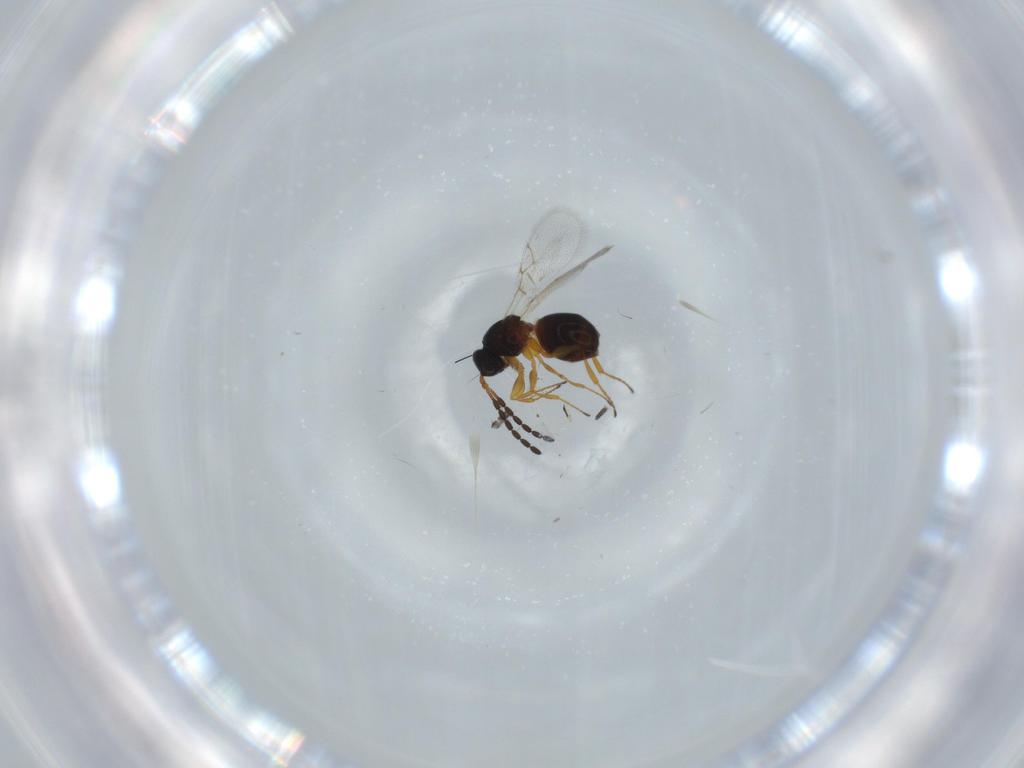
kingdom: Animalia
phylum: Arthropoda
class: Insecta
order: Hymenoptera
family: Figitidae
